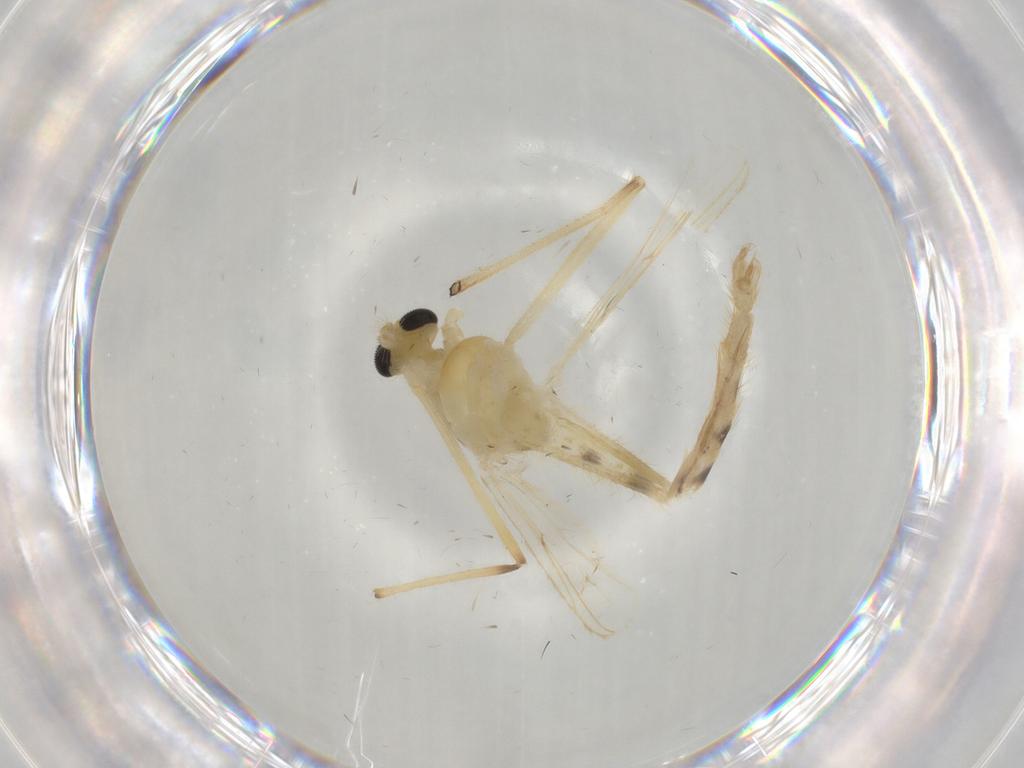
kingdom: Animalia
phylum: Arthropoda
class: Insecta
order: Diptera
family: Chironomidae
